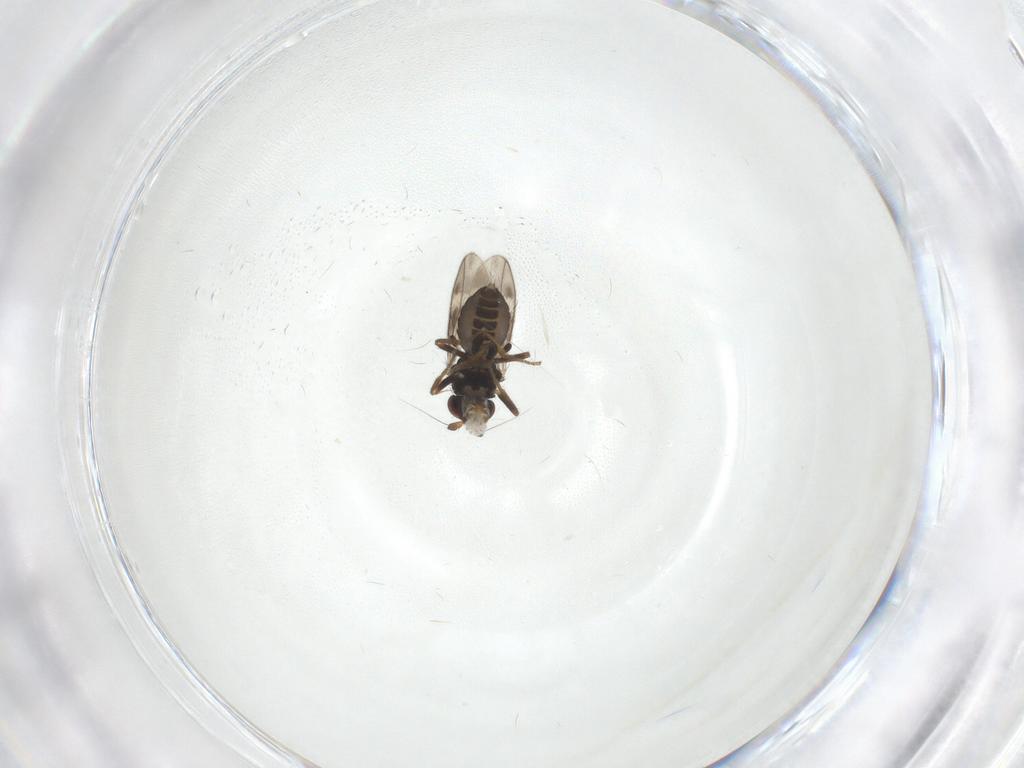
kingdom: Animalia
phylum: Arthropoda
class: Insecta
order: Diptera
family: Sphaeroceridae
